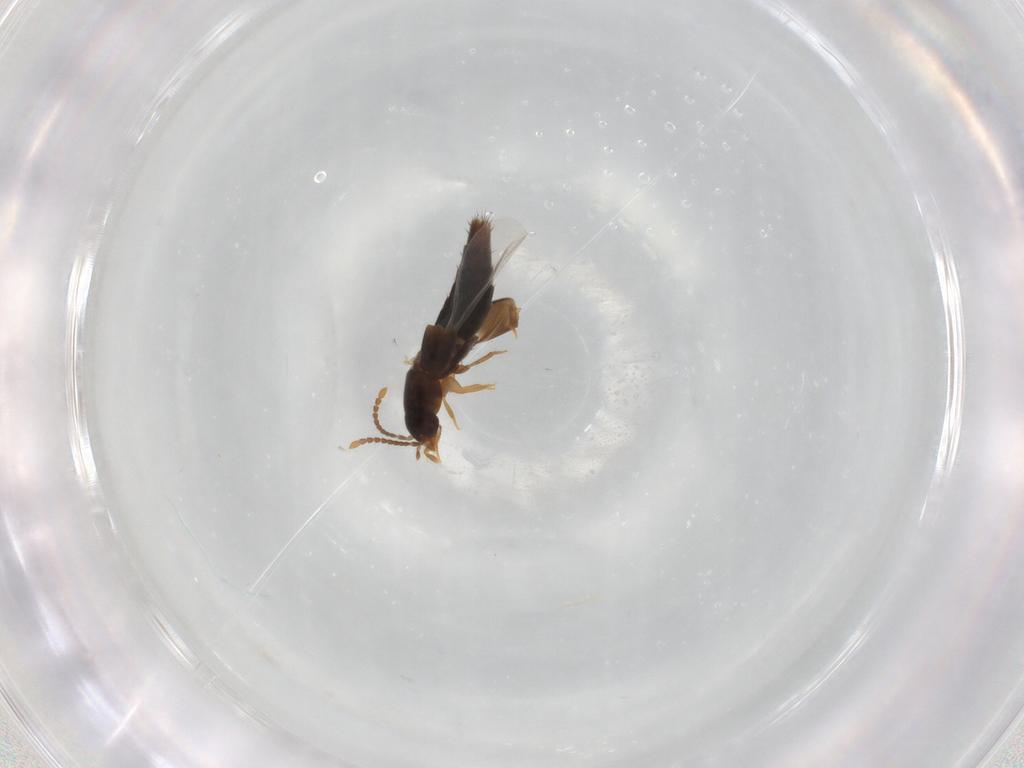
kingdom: Animalia
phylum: Arthropoda
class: Insecta
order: Coleoptera
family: Staphylinidae
